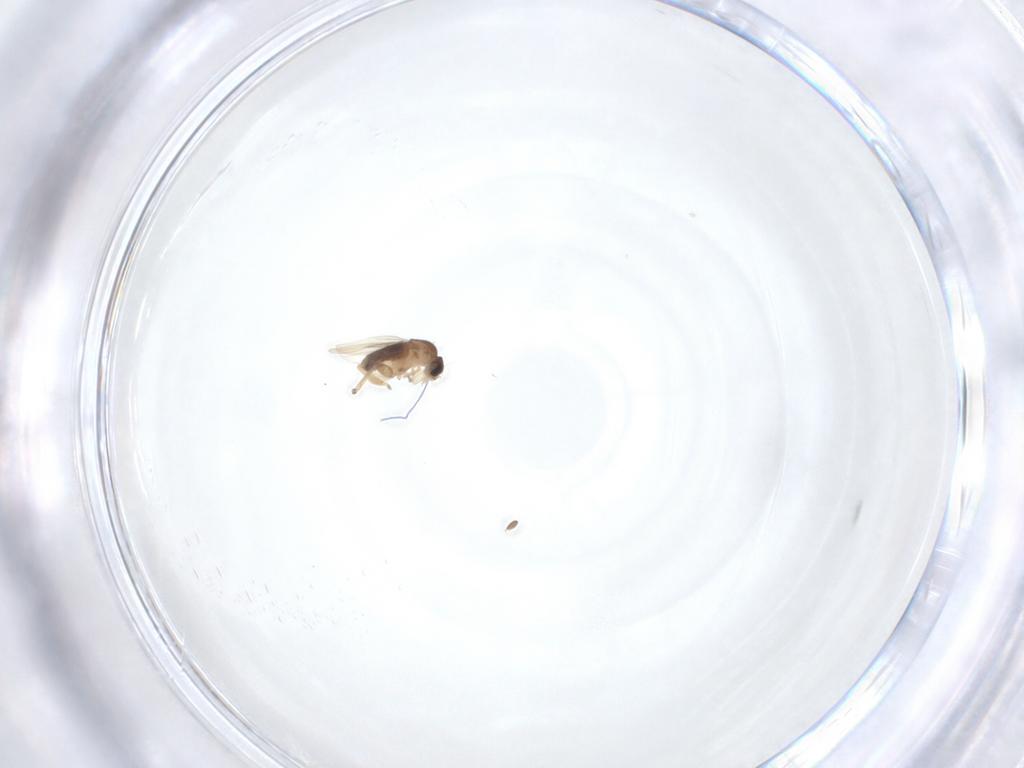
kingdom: Animalia
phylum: Arthropoda
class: Insecta
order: Diptera
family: Phoridae
